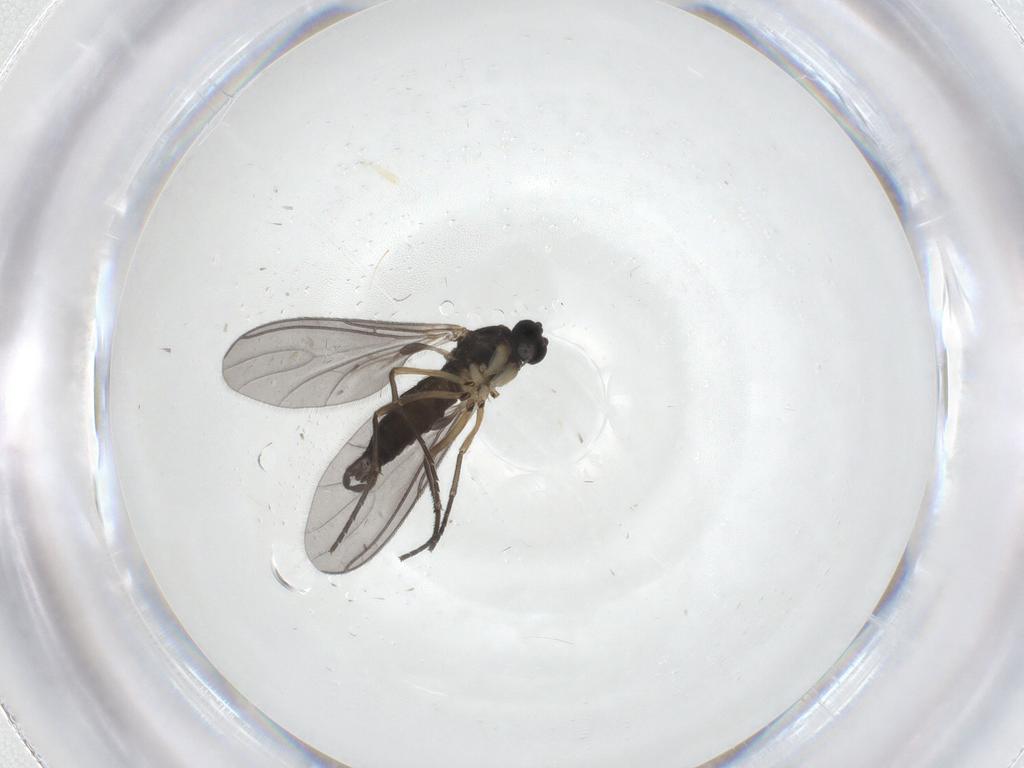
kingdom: Animalia
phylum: Arthropoda
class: Insecta
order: Diptera
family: Sciaridae
